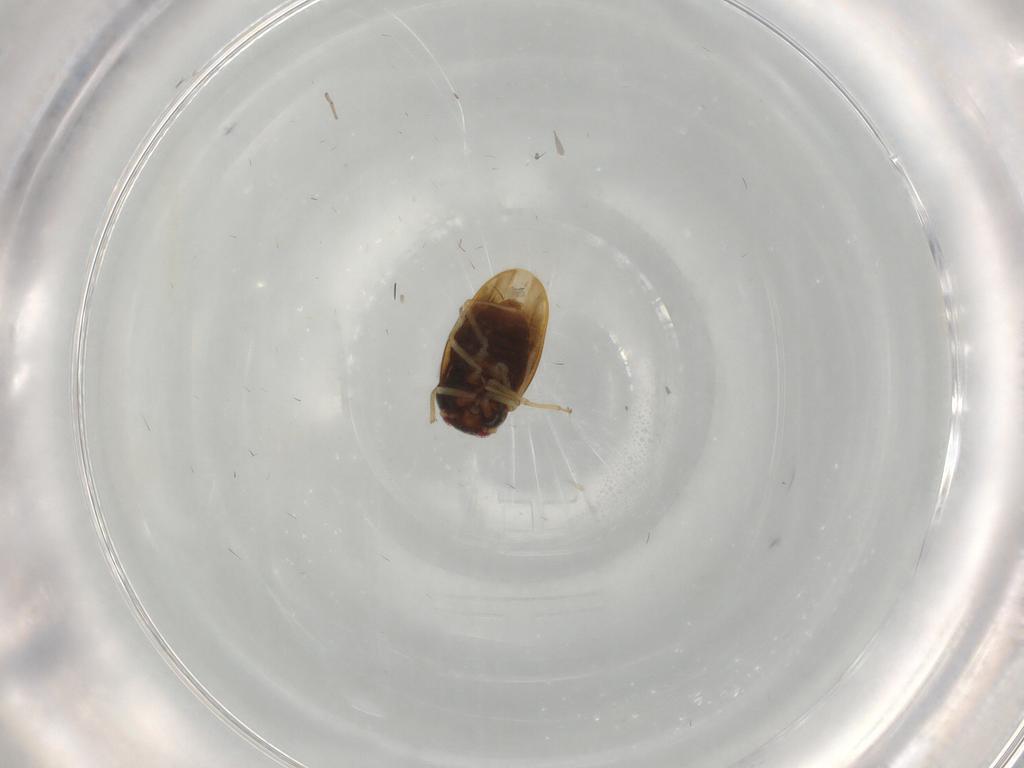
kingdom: Animalia
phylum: Arthropoda
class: Insecta
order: Hemiptera
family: Schizopteridae
